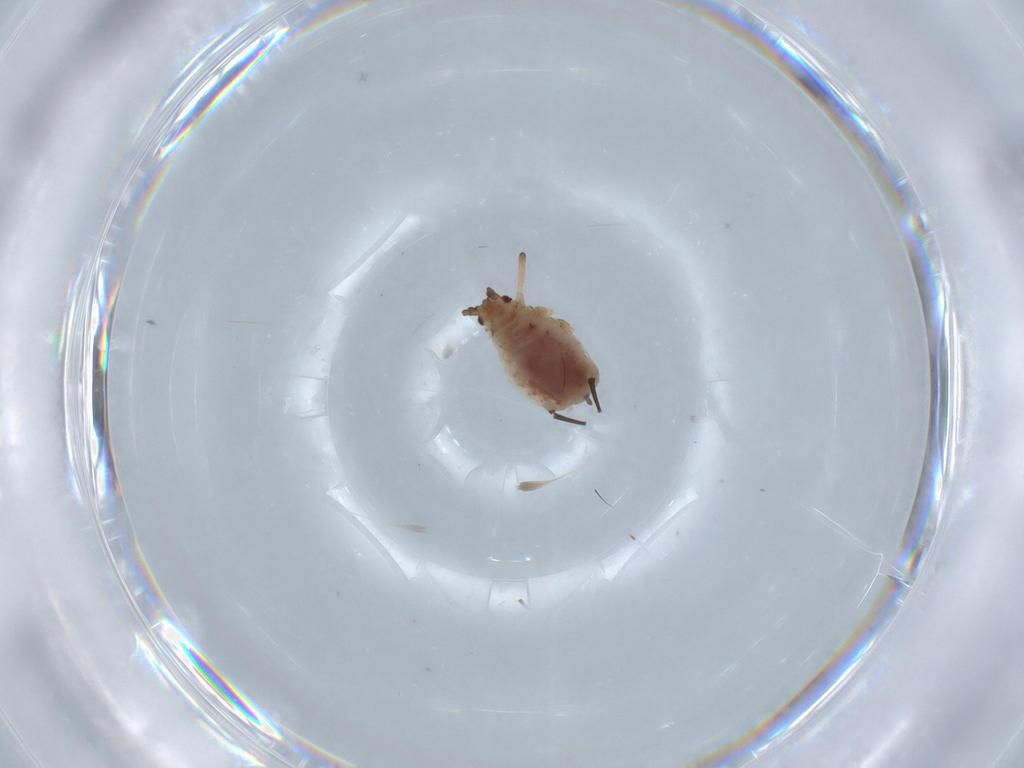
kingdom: Animalia
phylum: Arthropoda
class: Insecta
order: Hemiptera
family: Aphididae
